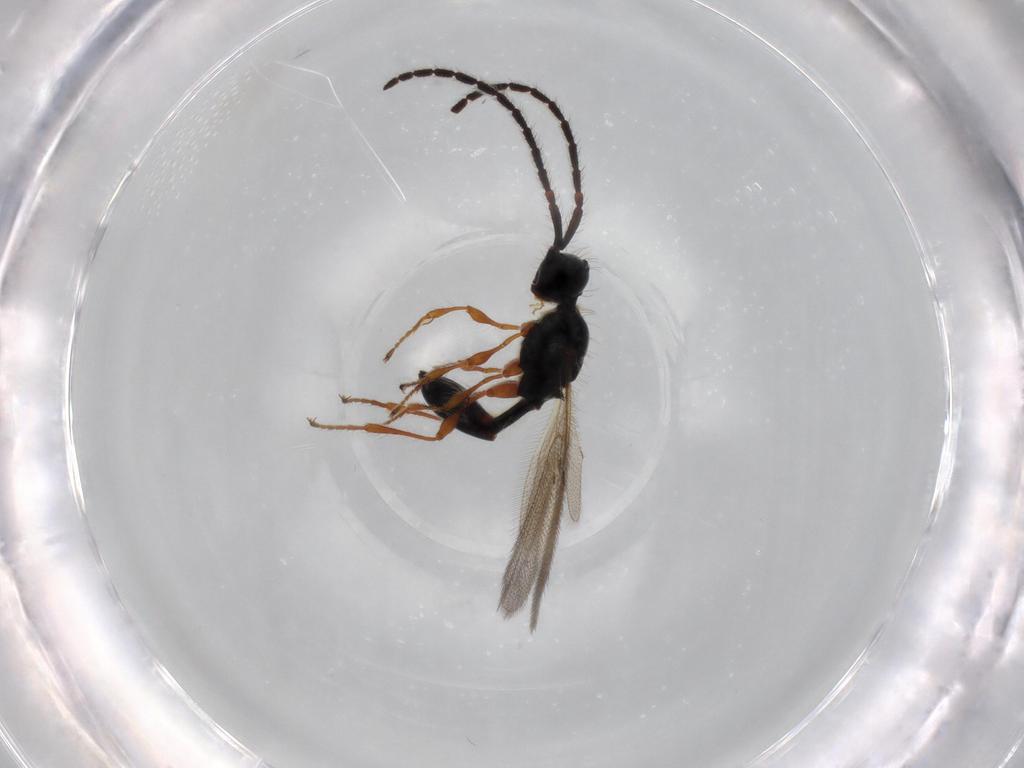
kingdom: Animalia
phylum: Arthropoda
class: Insecta
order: Hymenoptera
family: Diapriidae
